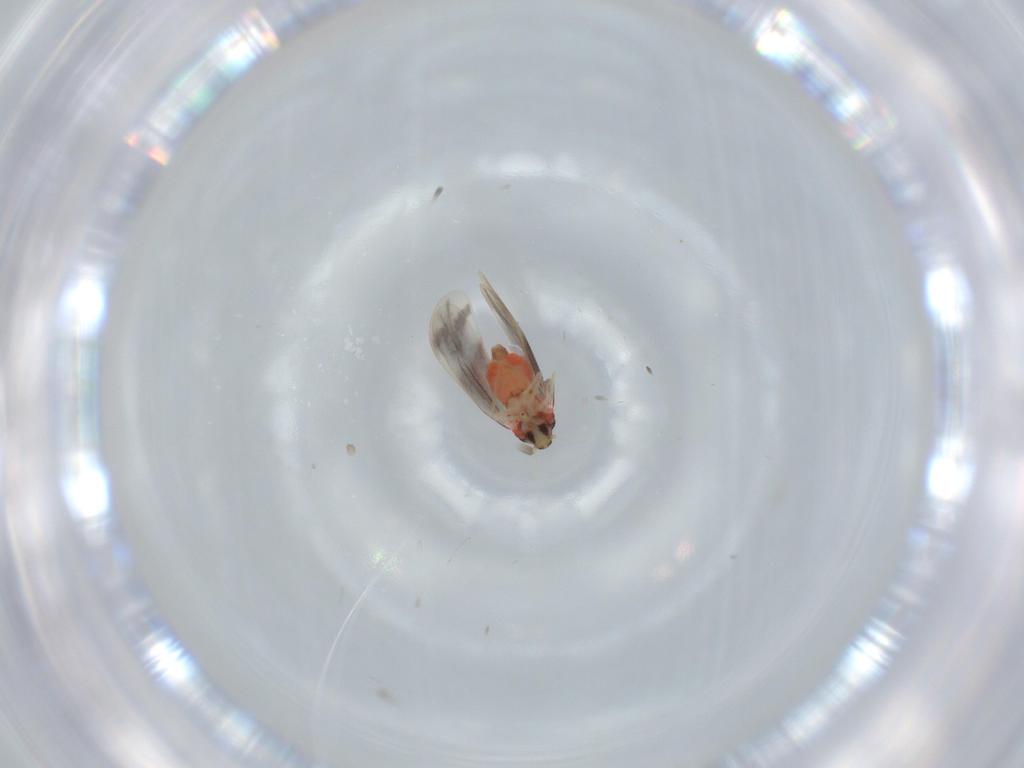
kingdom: Animalia
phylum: Arthropoda
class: Insecta
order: Hemiptera
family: Aleyrodidae
